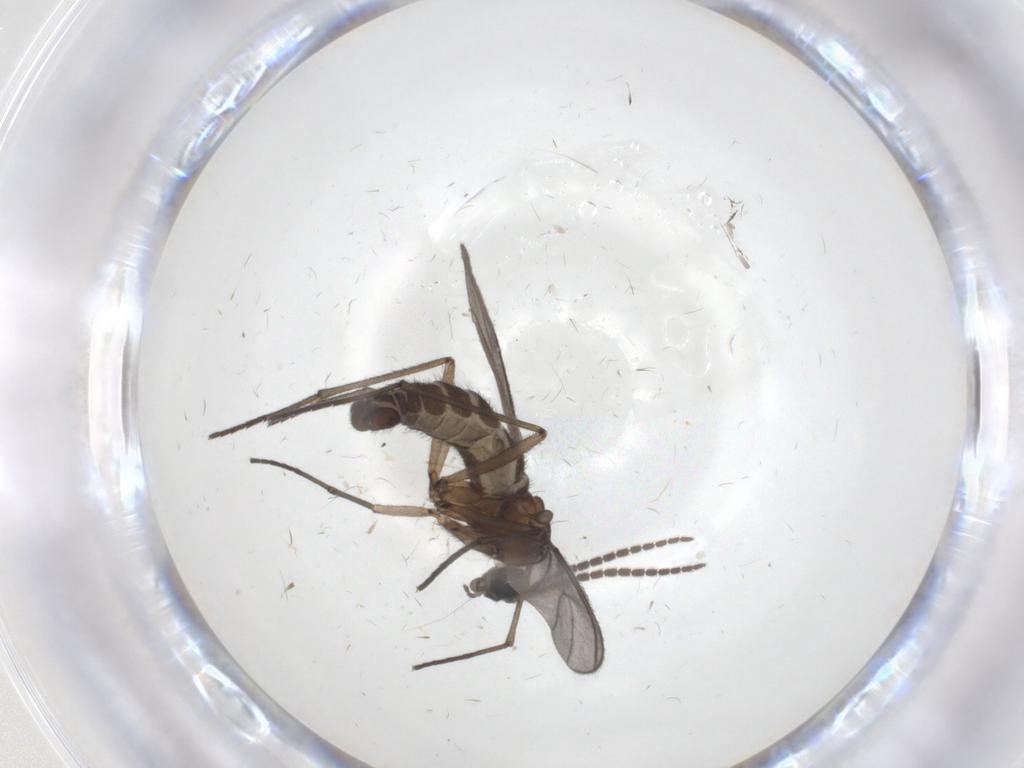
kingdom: Animalia
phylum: Arthropoda
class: Insecta
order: Diptera
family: Sciaridae
